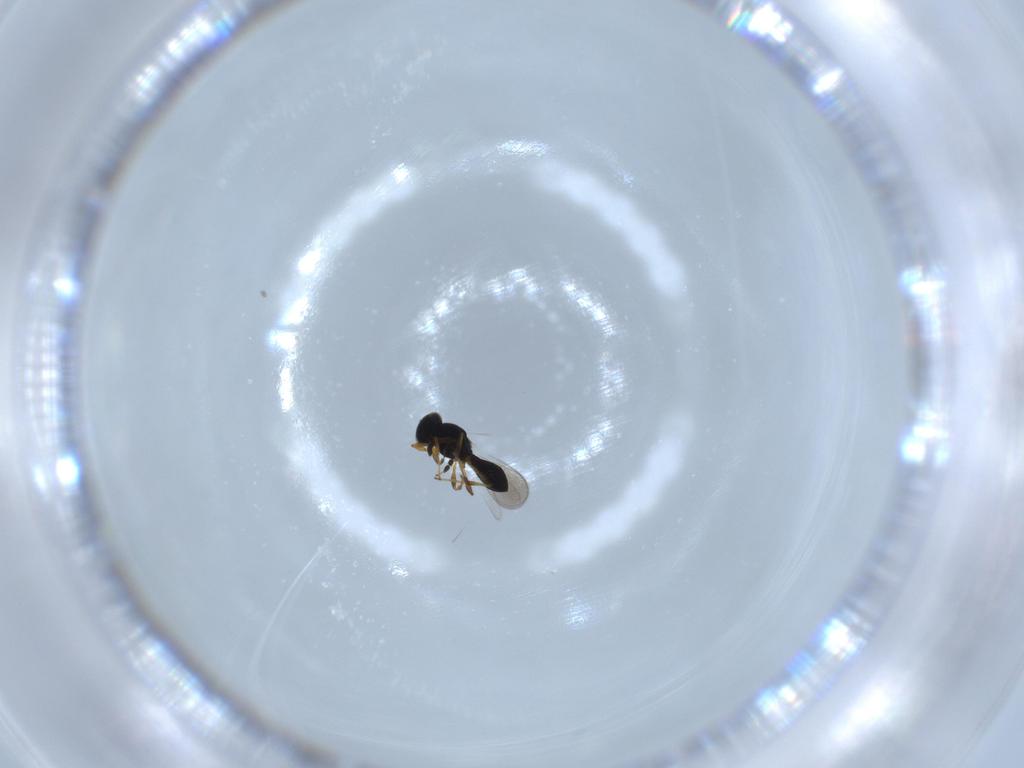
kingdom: Animalia
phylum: Arthropoda
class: Insecta
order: Hymenoptera
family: Platygastridae
